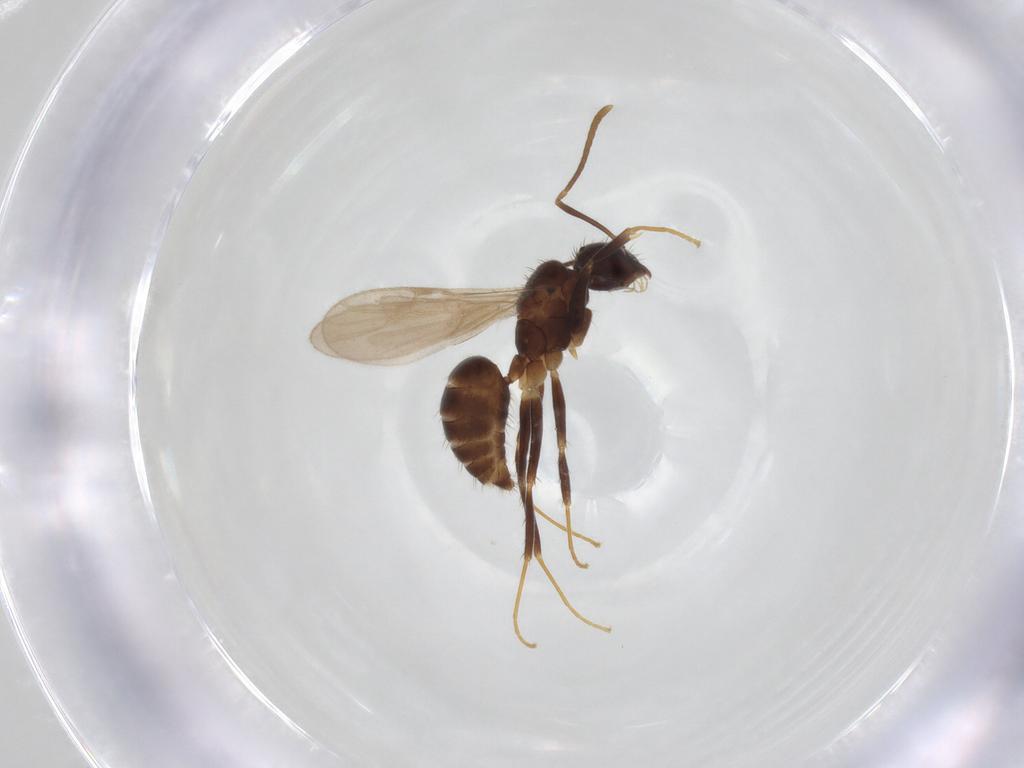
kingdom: Animalia
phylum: Arthropoda
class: Insecta
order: Hymenoptera
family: Formicidae
